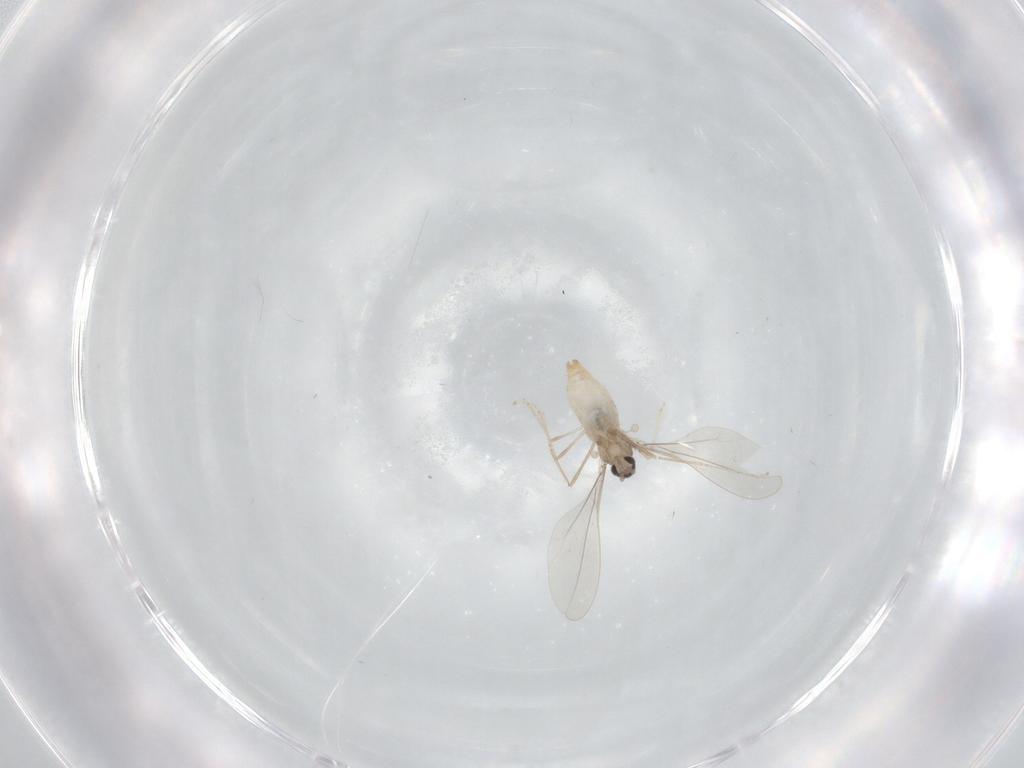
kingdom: Animalia
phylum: Arthropoda
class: Insecta
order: Diptera
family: Cecidomyiidae
